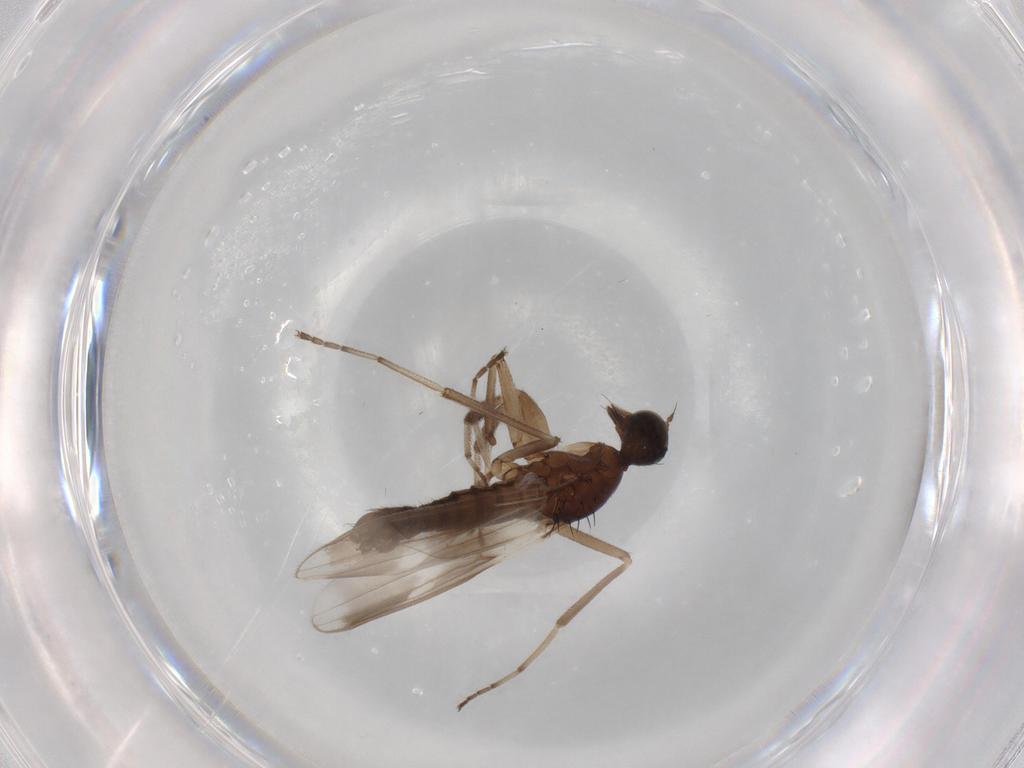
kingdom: Animalia
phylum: Arthropoda
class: Insecta
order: Diptera
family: Hybotidae
